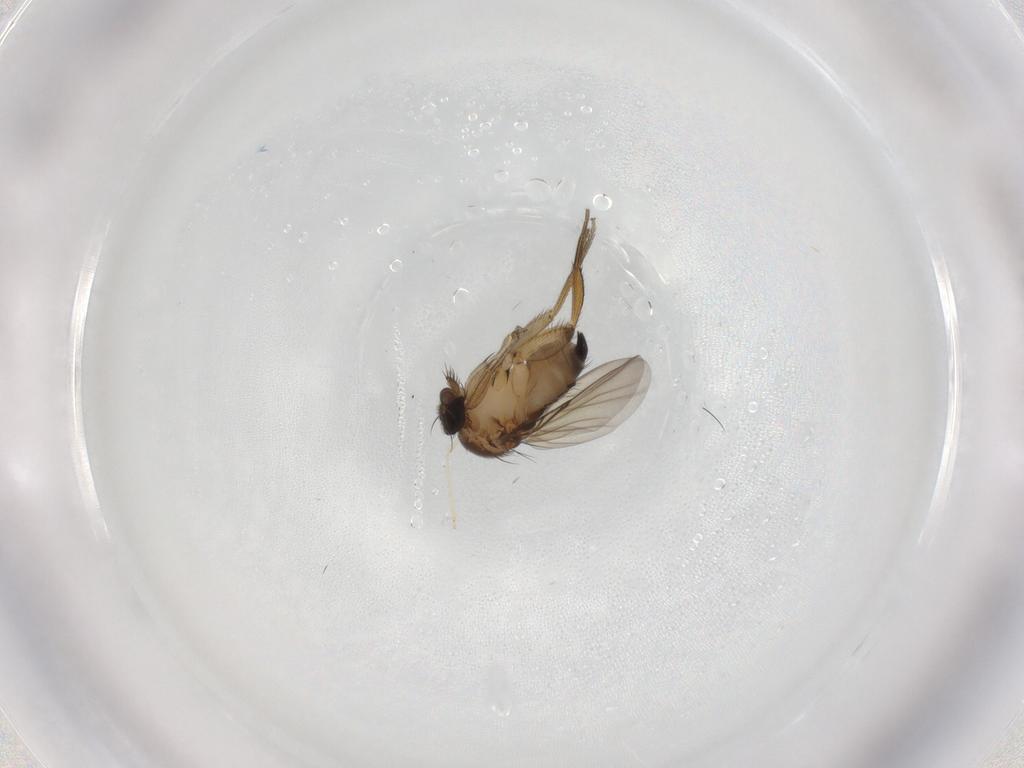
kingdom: Animalia
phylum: Arthropoda
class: Insecta
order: Diptera
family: Phoridae
